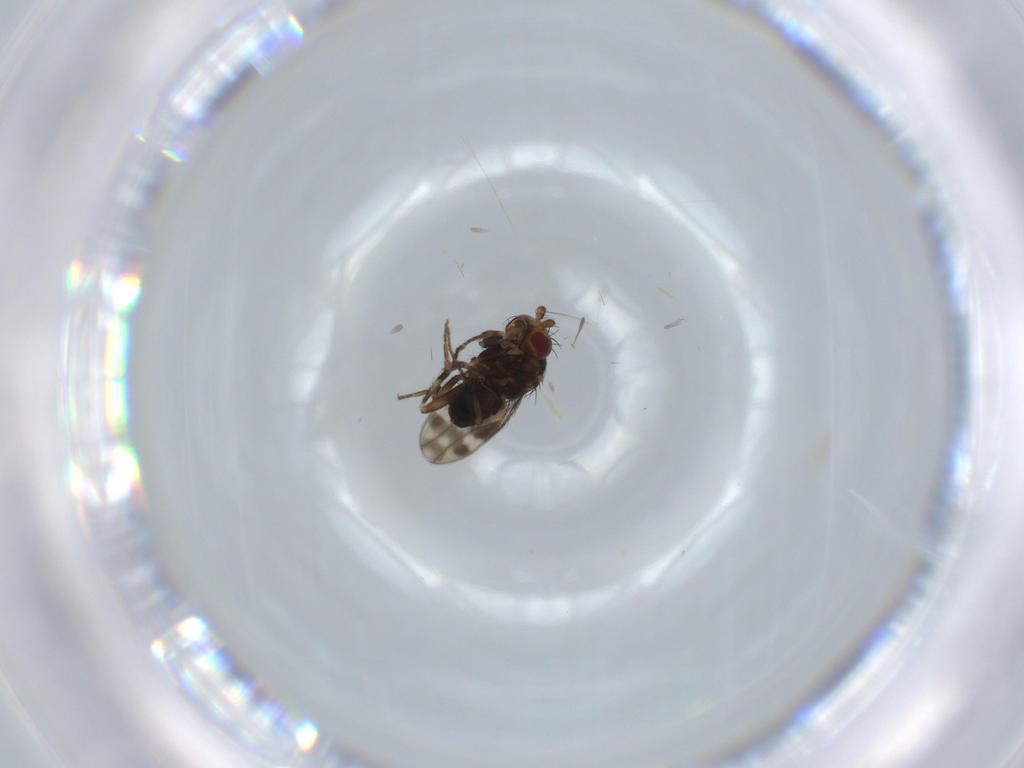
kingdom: Animalia
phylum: Arthropoda
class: Insecta
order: Diptera
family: Sphaeroceridae
